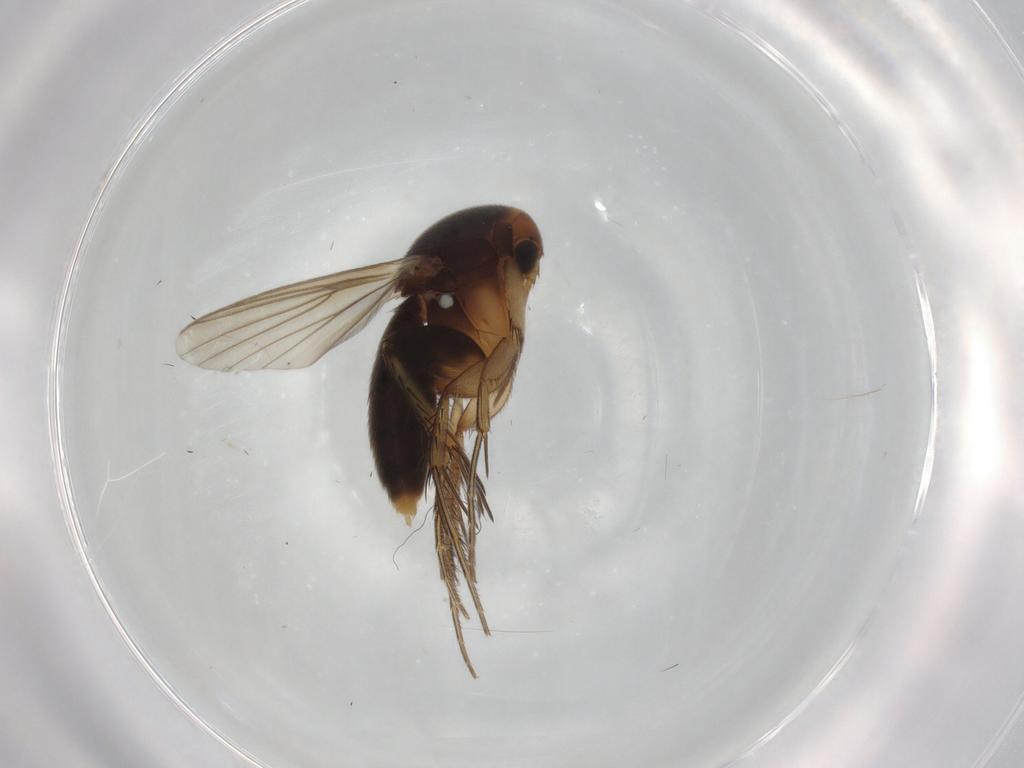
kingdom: Animalia
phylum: Arthropoda
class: Insecta
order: Diptera
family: Mycetophilidae
